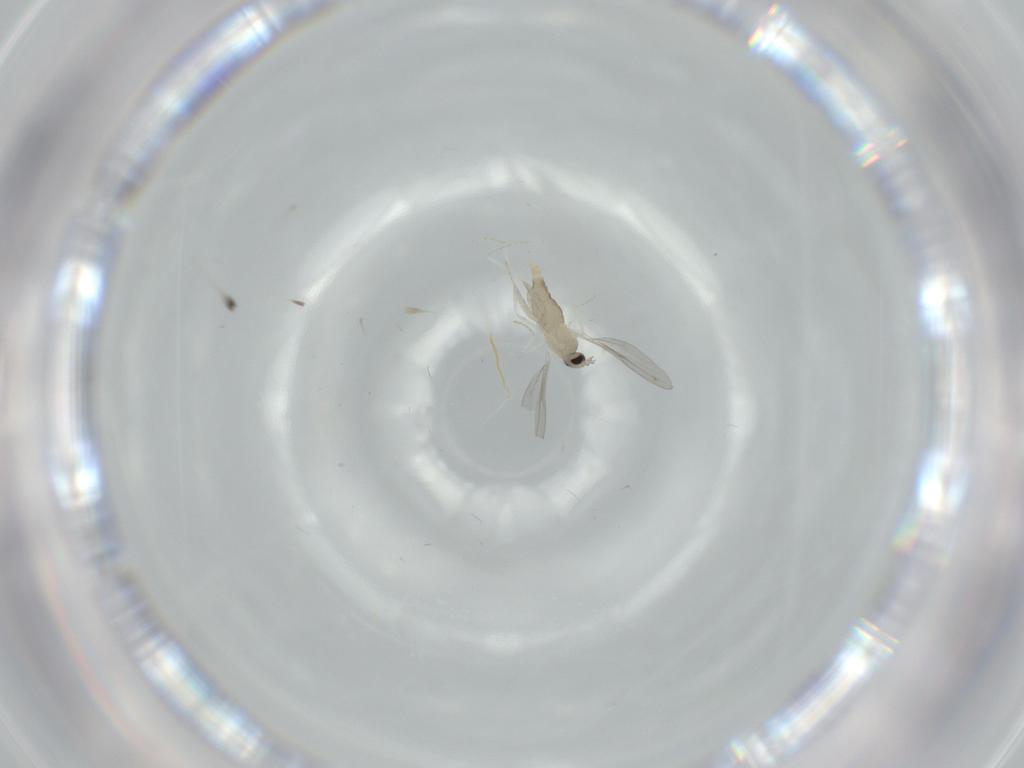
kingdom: Animalia
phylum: Arthropoda
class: Insecta
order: Diptera
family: Cecidomyiidae
